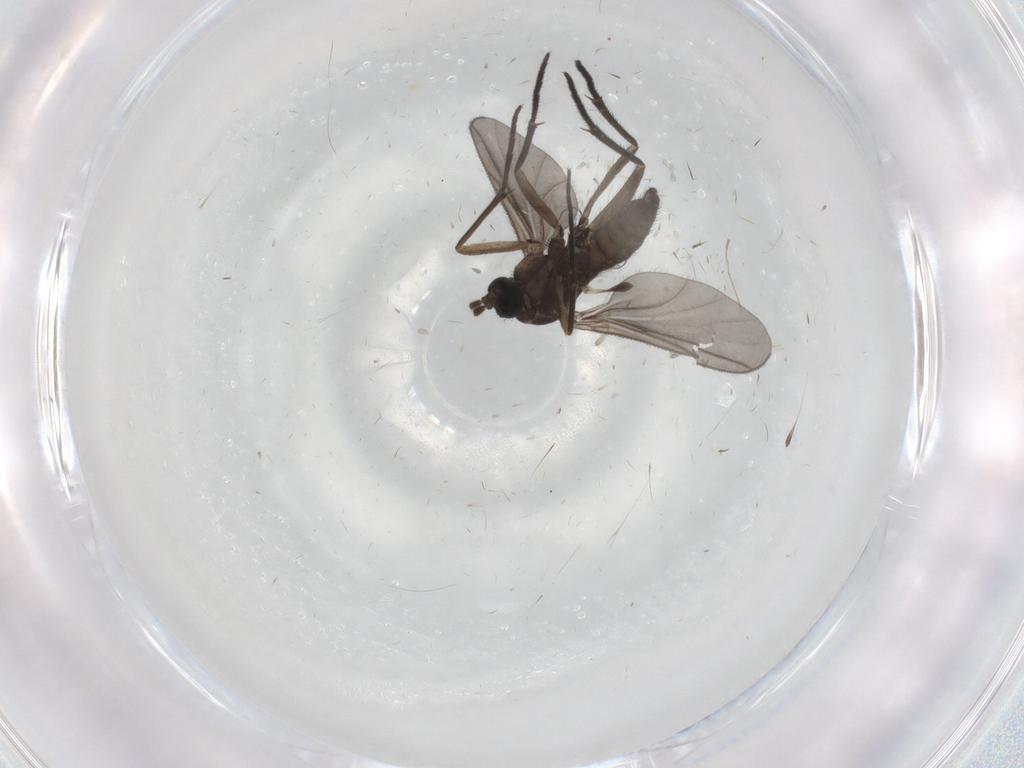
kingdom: Animalia
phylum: Arthropoda
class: Insecta
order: Diptera
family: Sciaridae
